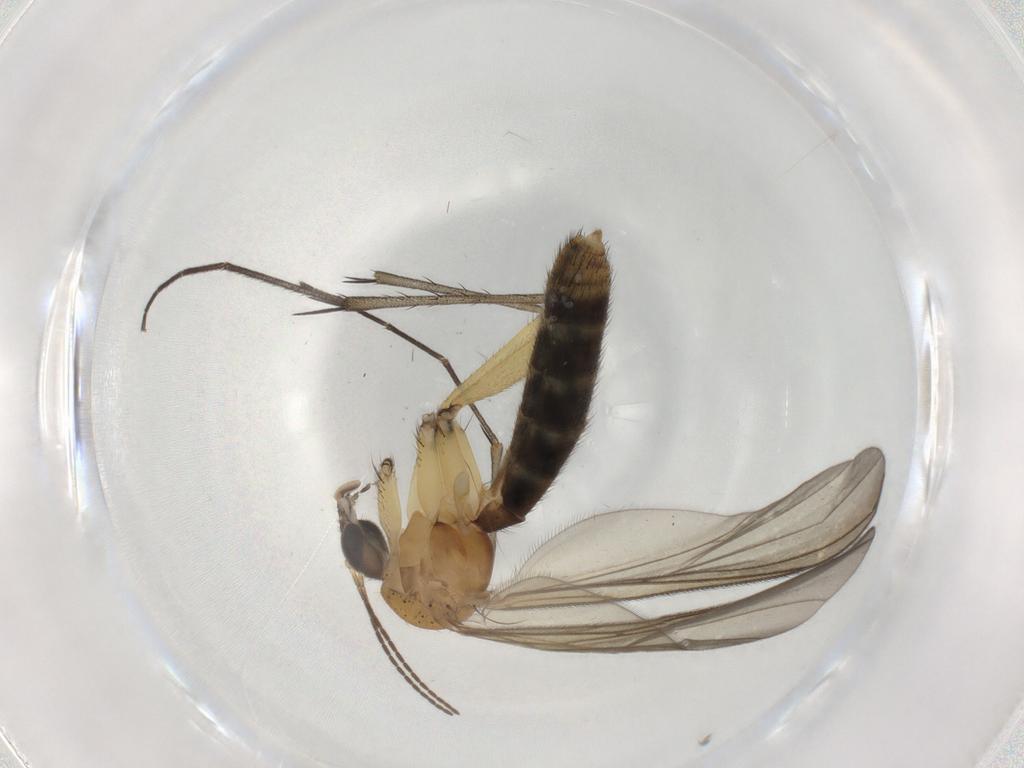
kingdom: Animalia
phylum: Arthropoda
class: Insecta
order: Diptera
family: Mycetophilidae
